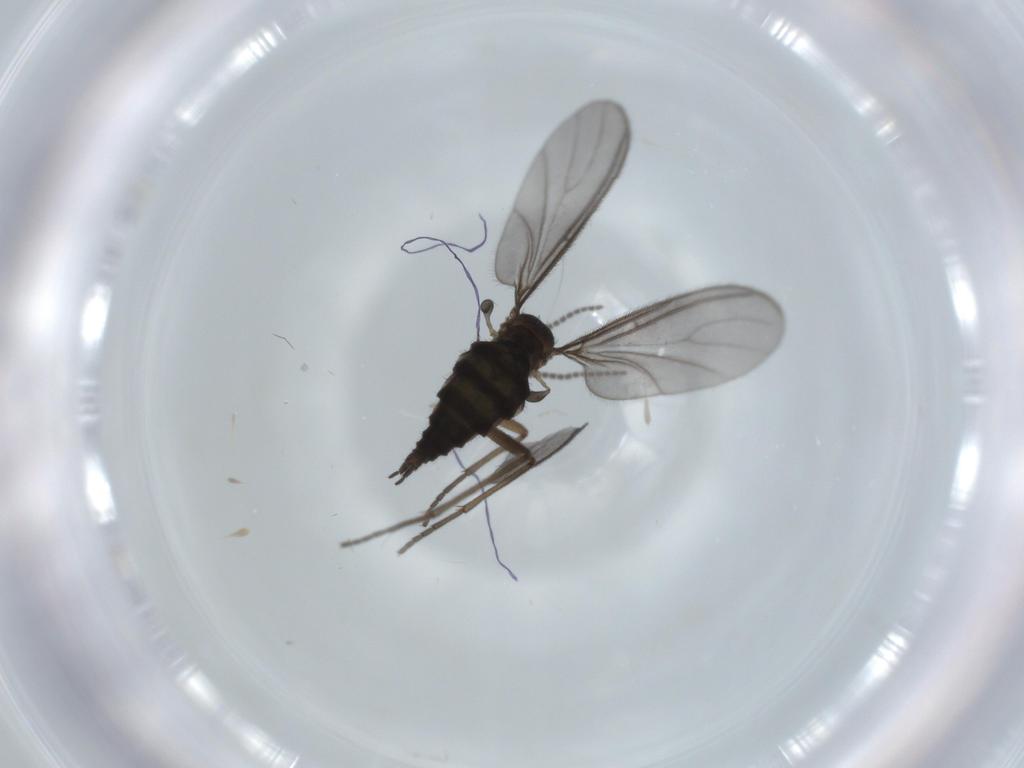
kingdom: Animalia
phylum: Arthropoda
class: Insecta
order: Diptera
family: Sciaridae
